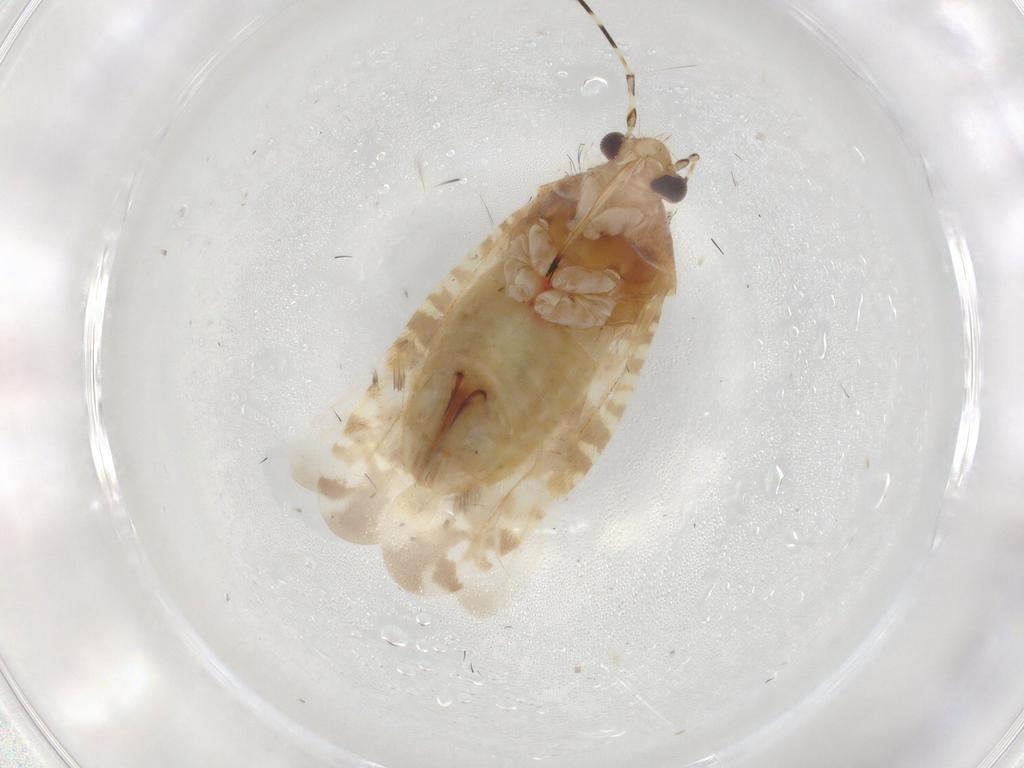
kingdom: Animalia
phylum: Arthropoda
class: Insecta
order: Hemiptera
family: Miridae
